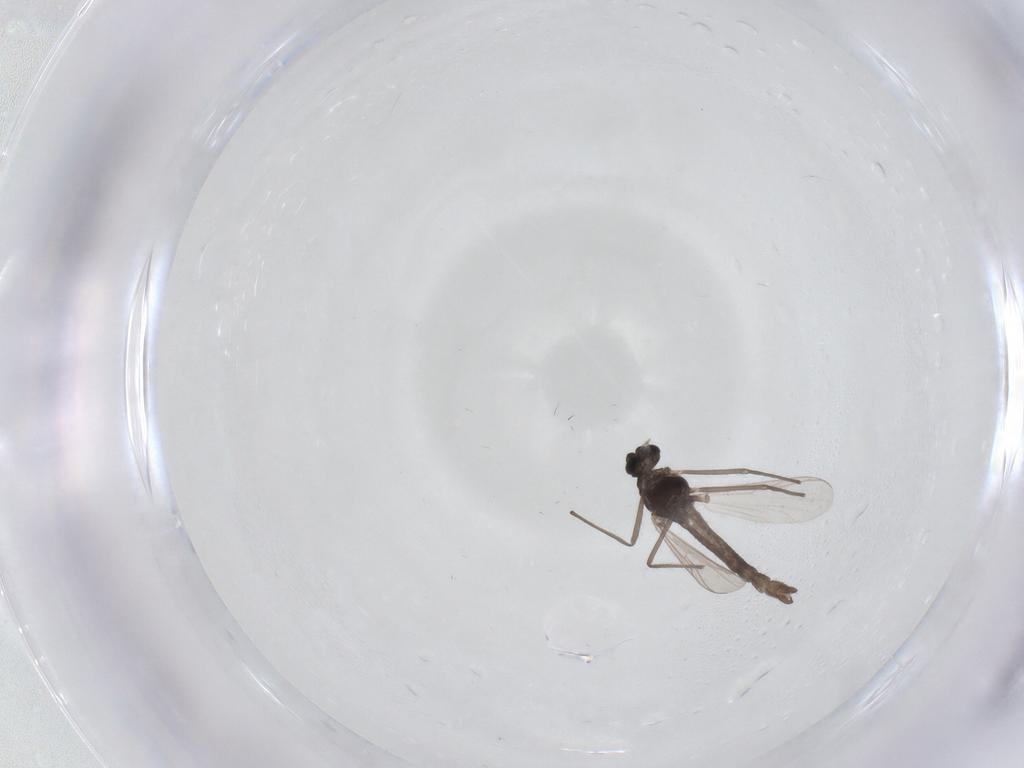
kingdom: Animalia
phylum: Arthropoda
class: Insecta
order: Diptera
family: Chironomidae
